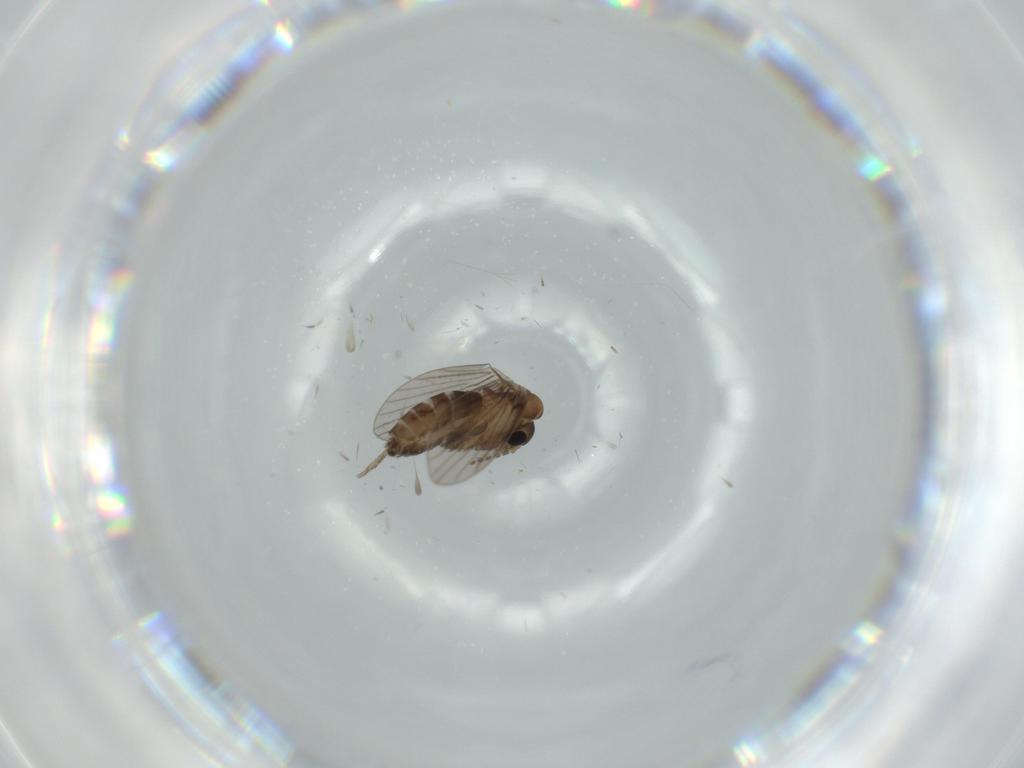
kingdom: Animalia
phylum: Arthropoda
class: Insecta
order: Diptera
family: Psychodidae
